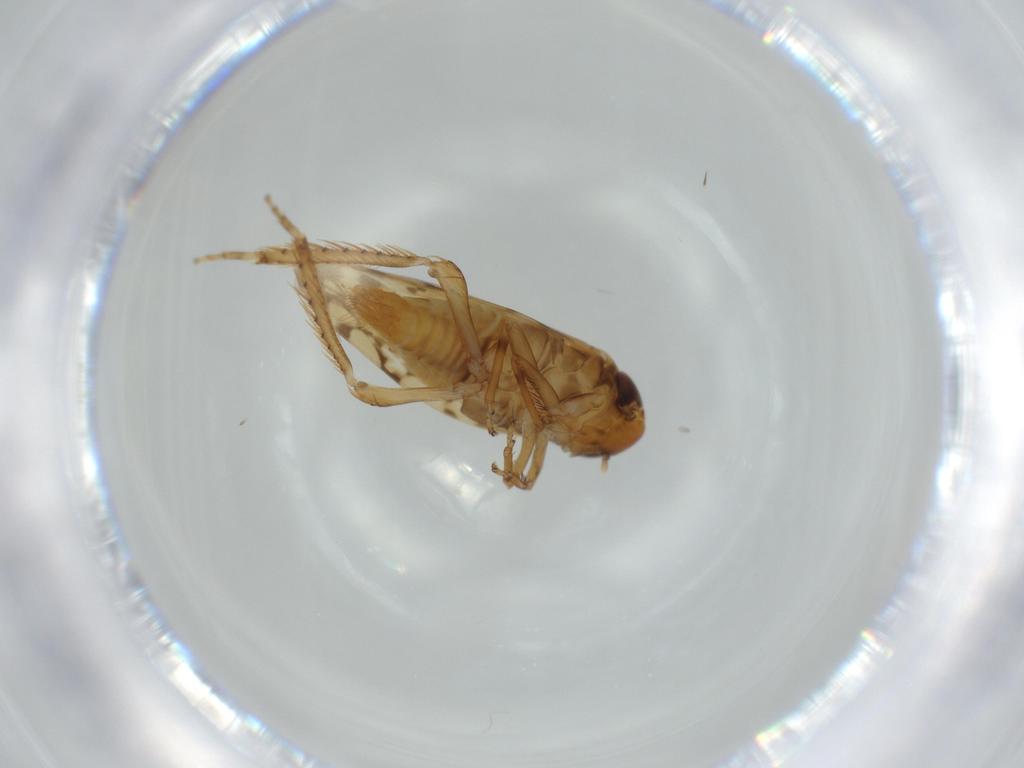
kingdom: Animalia
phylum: Arthropoda
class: Insecta
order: Hemiptera
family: Cicadellidae
